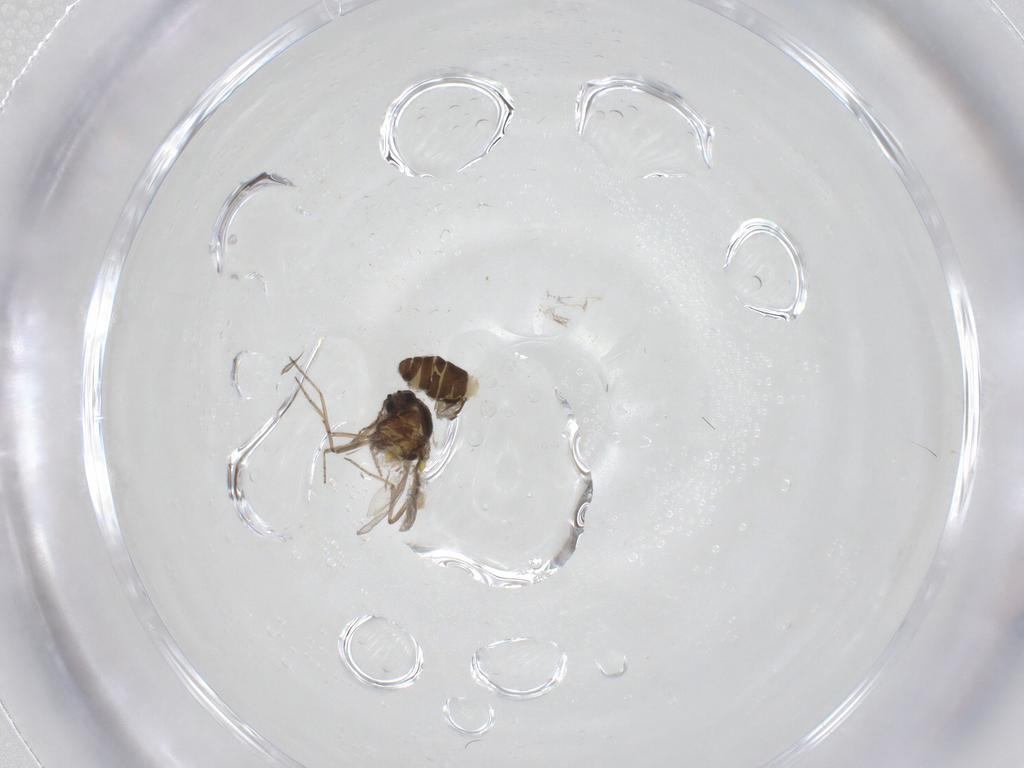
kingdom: Animalia
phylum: Arthropoda
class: Insecta
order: Diptera
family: Ceratopogonidae
